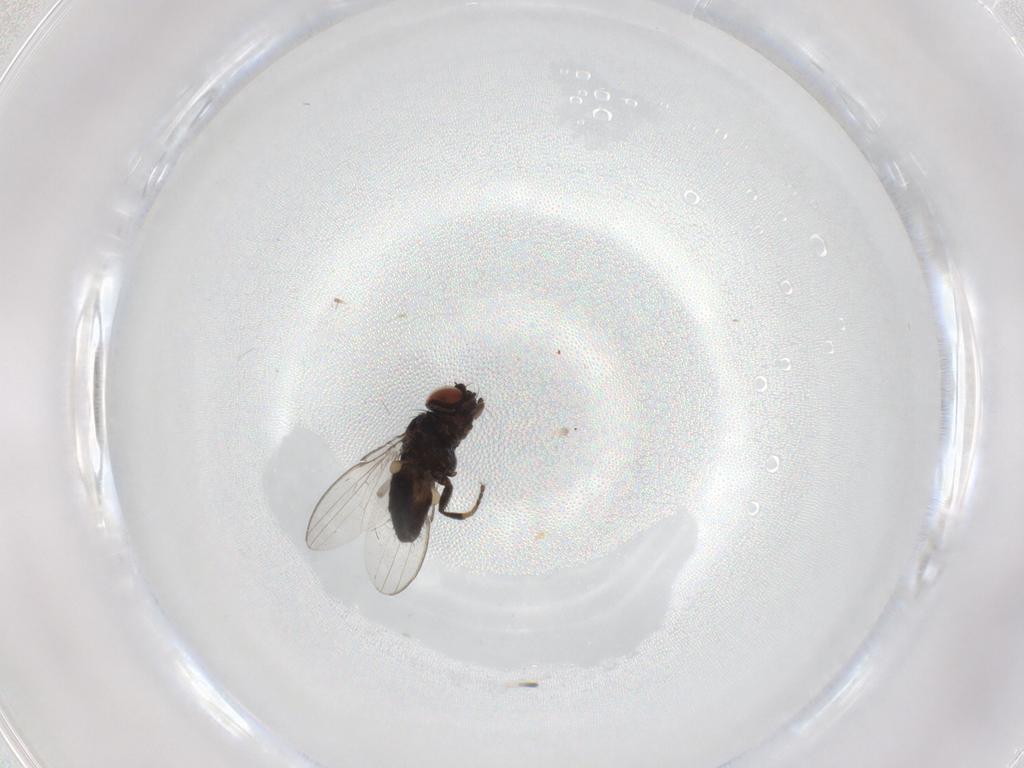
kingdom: Animalia
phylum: Arthropoda
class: Insecta
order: Diptera
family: Milichiidae
